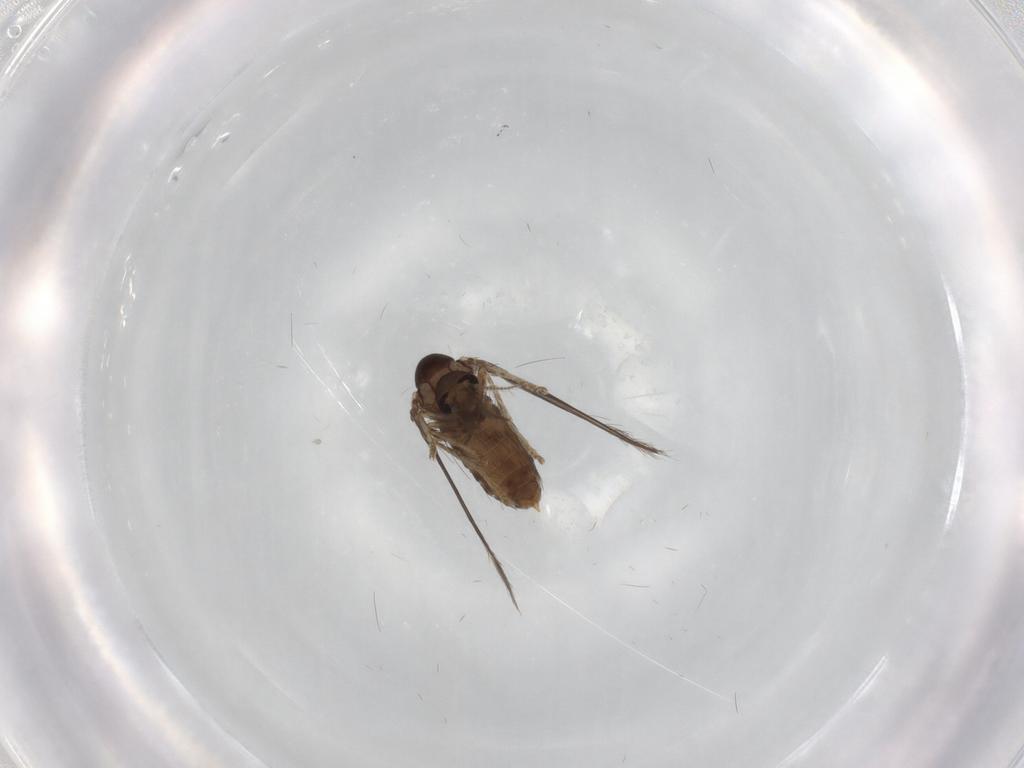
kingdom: Animalia
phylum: Arthropoda
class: Insecta
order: Diptera
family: Psychodidae
